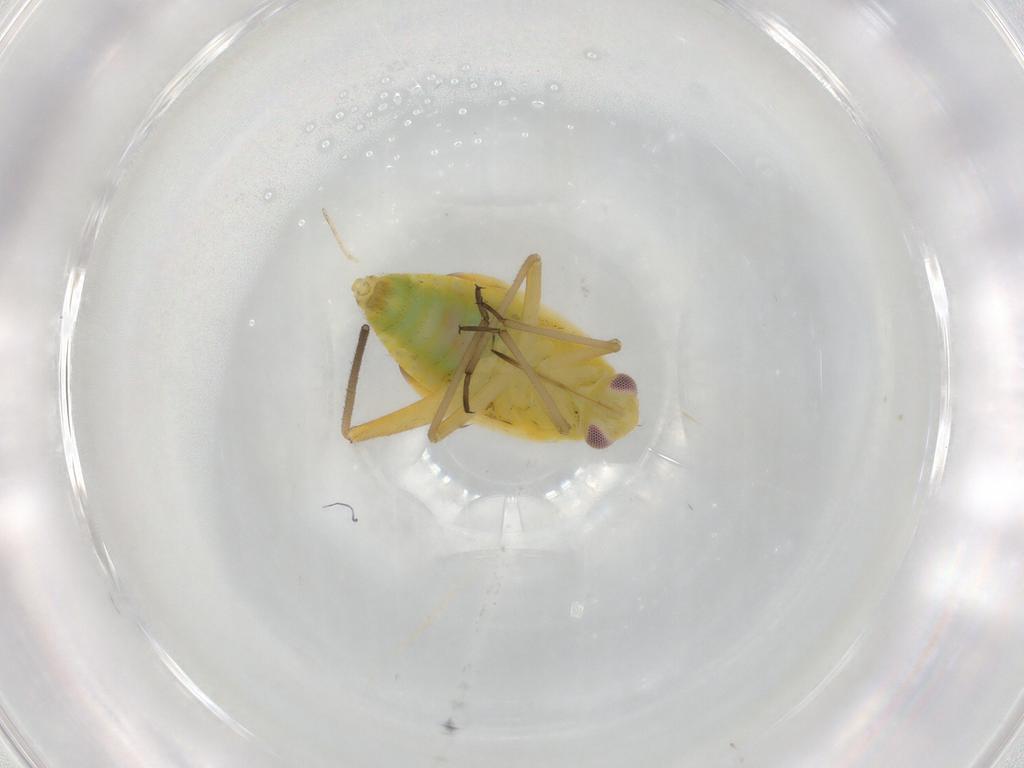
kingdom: Animalia
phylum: Arthropoda
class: Insecta
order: Hemiptera
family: Miridae
